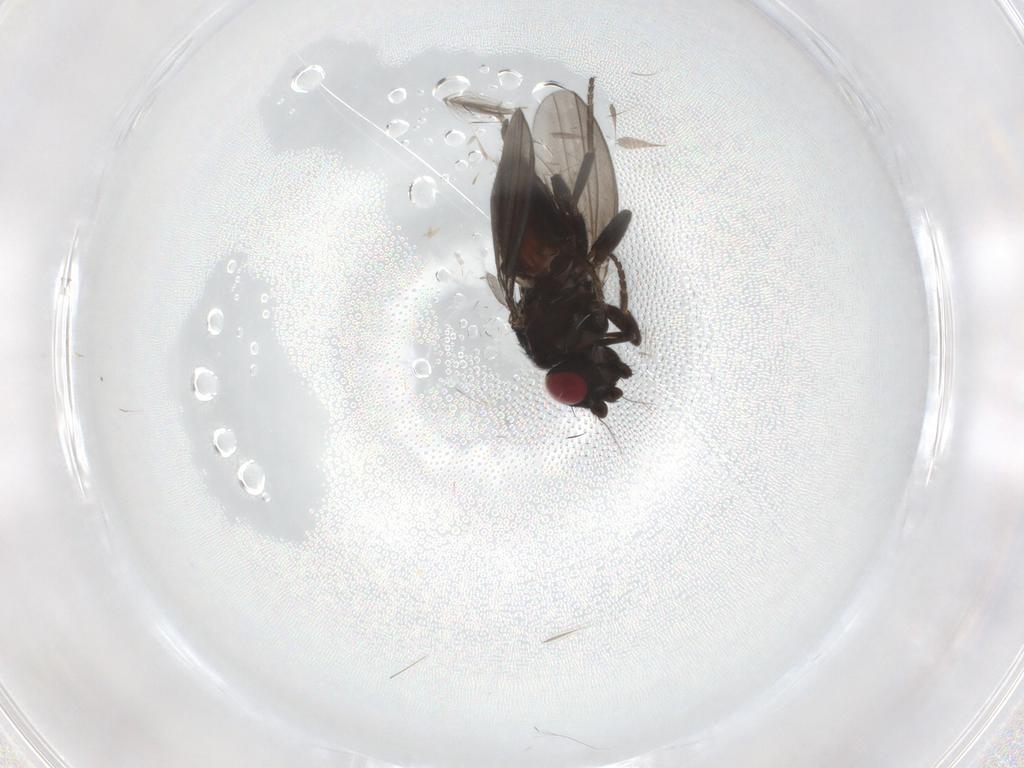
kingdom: Animalia
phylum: Arthropoda
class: Insecta
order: Diptera
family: Milichiidae
